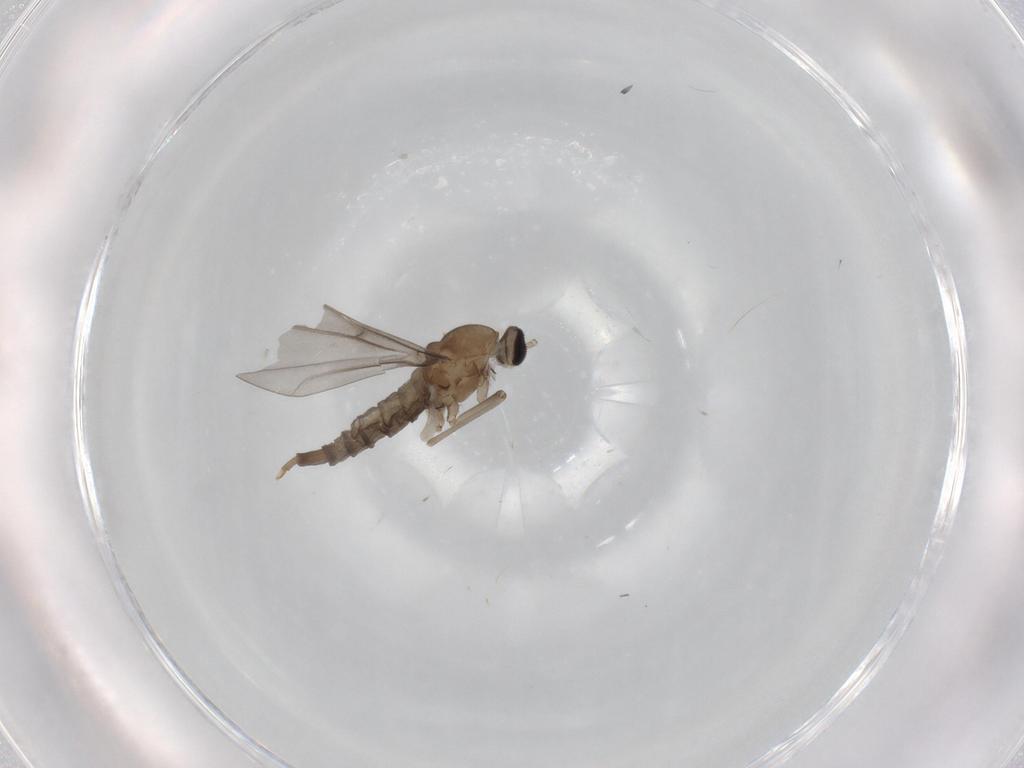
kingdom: Animalia
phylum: Arthropoda
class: Insecta
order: Diptera
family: Cecidomyiidae
